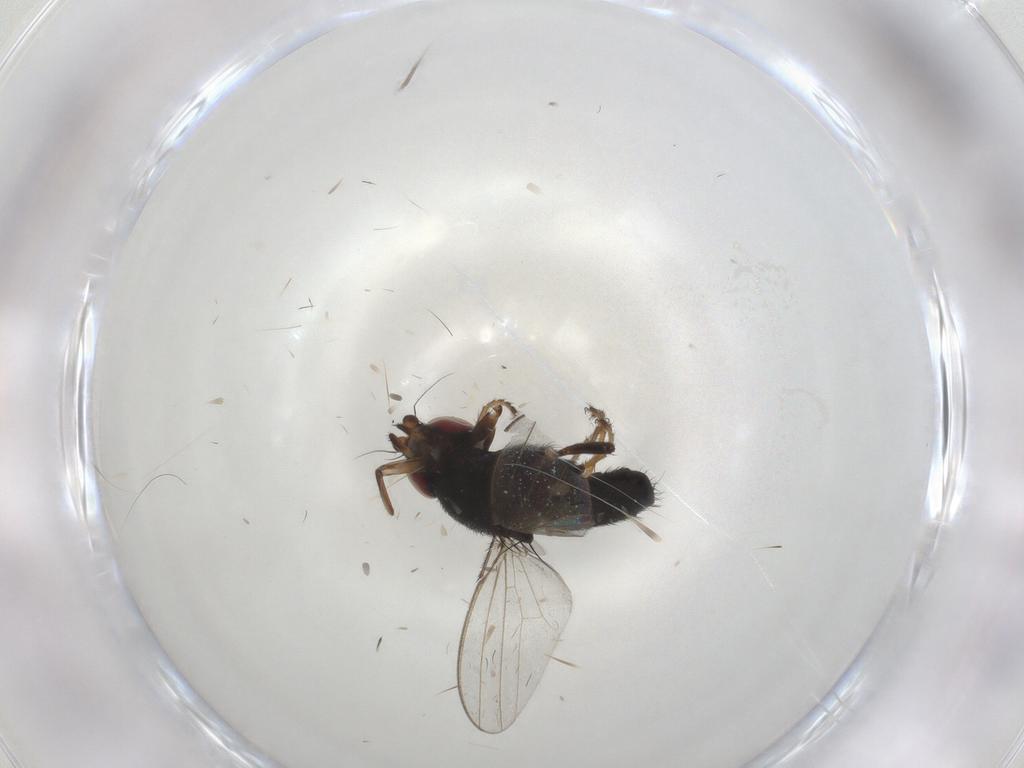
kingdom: Animalia
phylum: Arthropoda
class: Insecta
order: Diptera
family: Milichiidae
